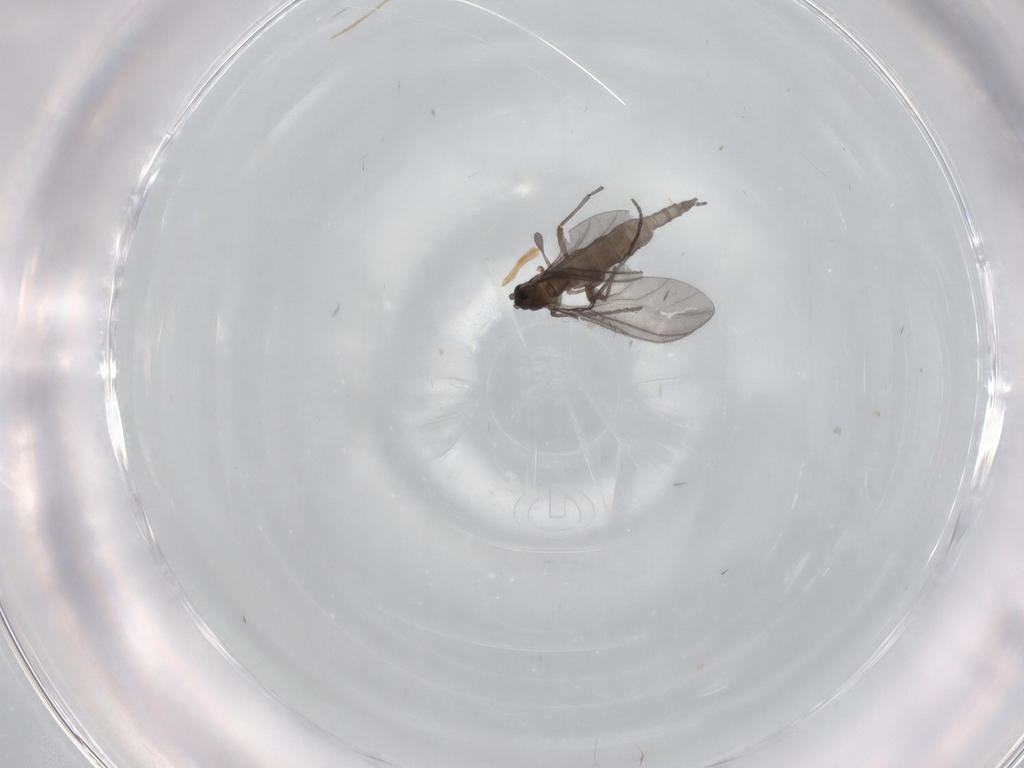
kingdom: Animalia
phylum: Arthropoda
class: Insecta
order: Diptera
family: Sciaridae
